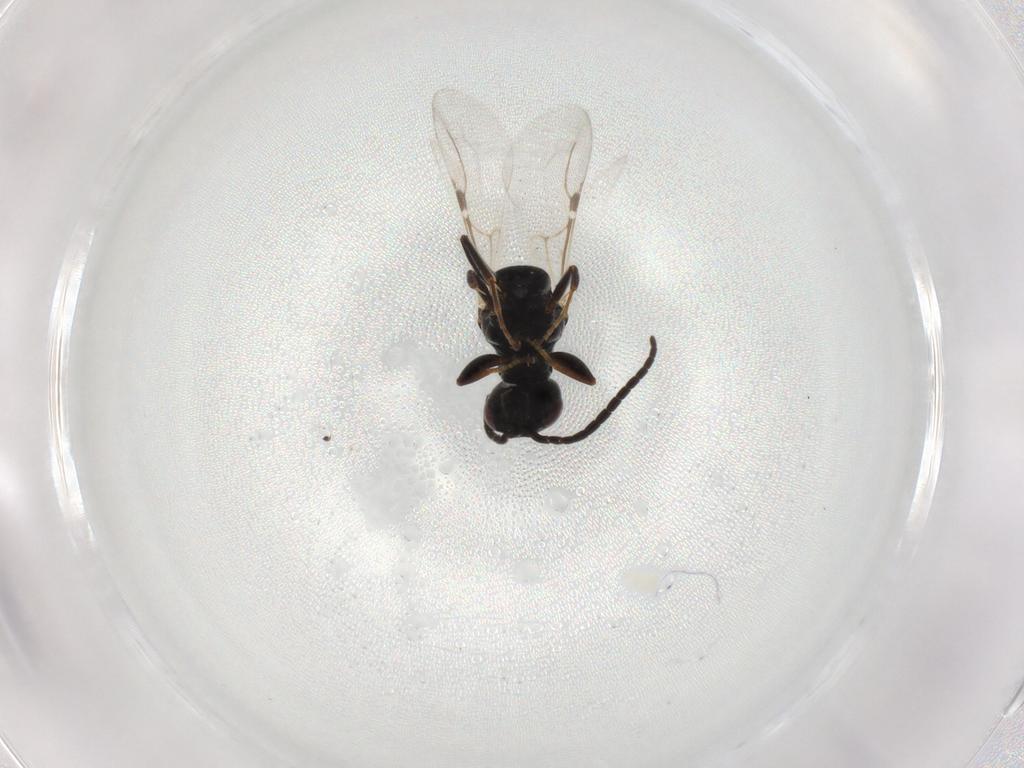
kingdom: Animalia
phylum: Arthropoda
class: Insecta
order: Hymenoptera
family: Bethylidae
